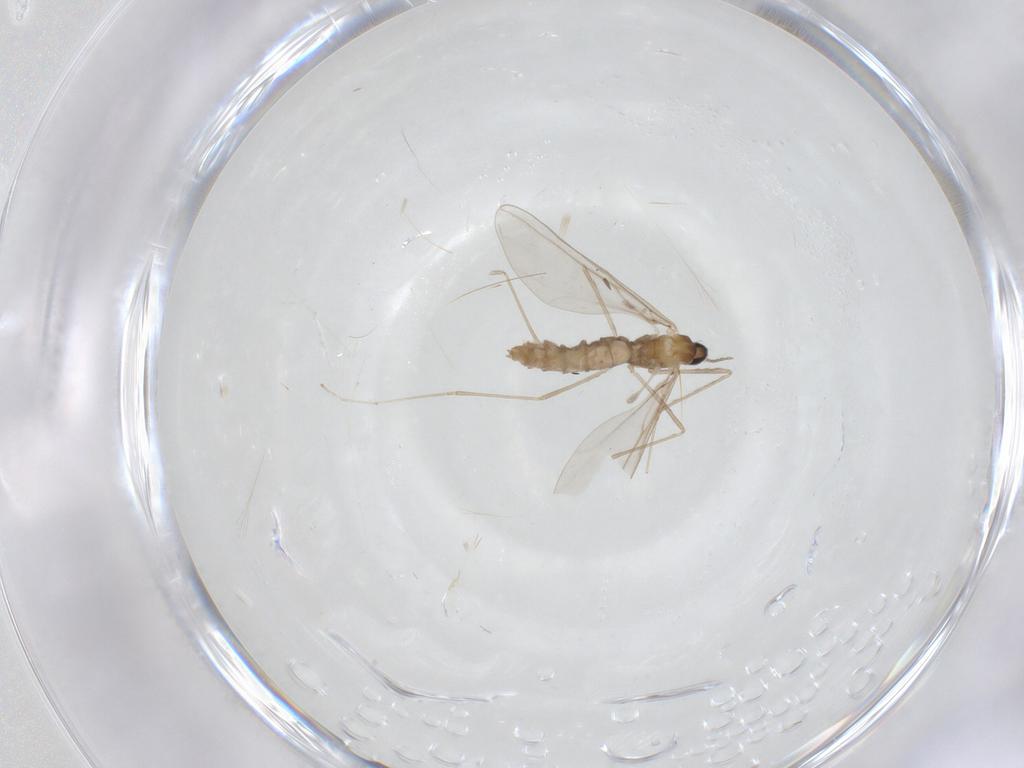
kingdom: Animalia
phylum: Arthropoda
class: Insecta
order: Diptera
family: Cecidomyiidae
